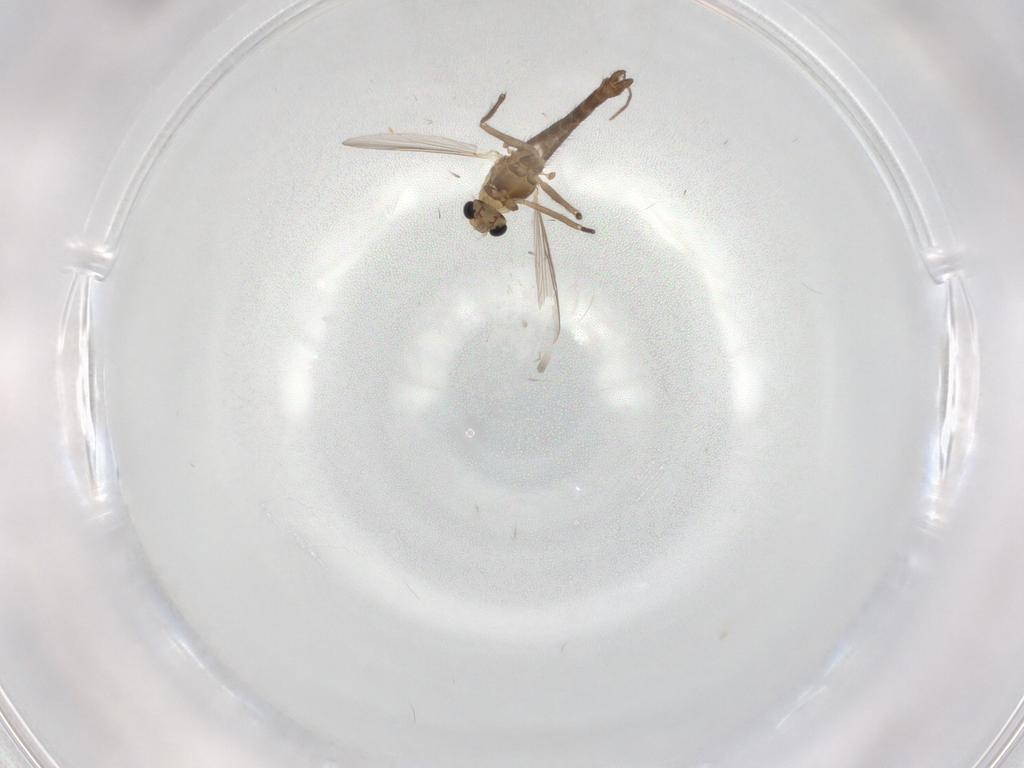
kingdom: Animalia
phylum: Arthropoda
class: Insecta
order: Diptera
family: Chironomidae
